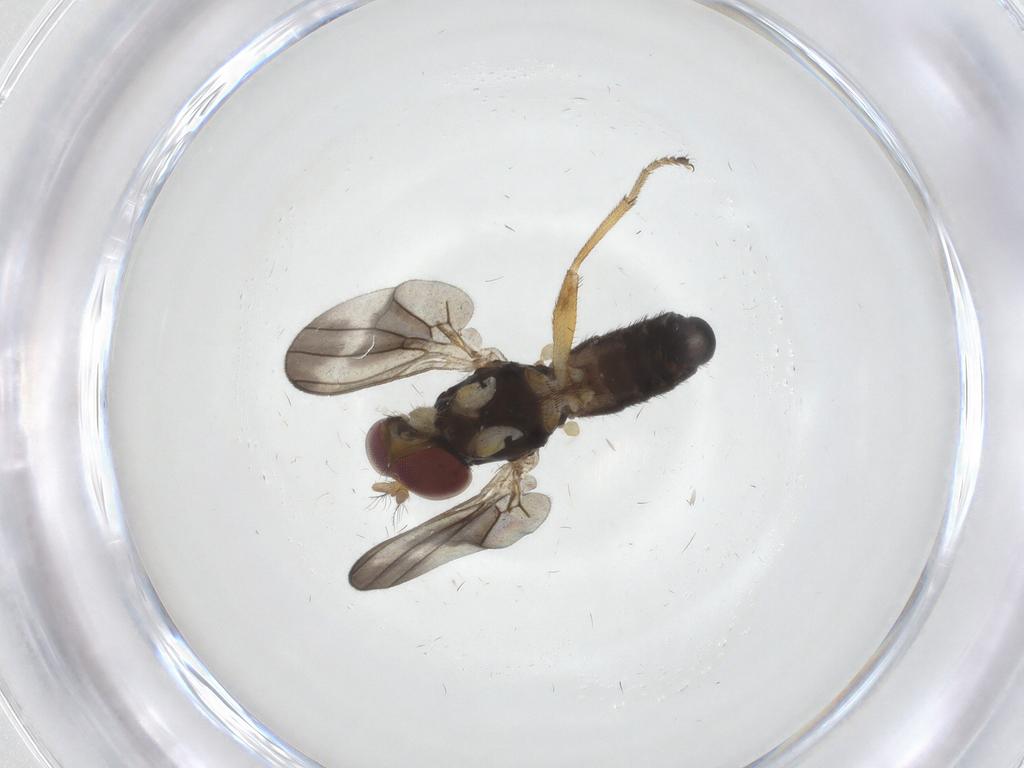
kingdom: Animalia
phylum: Arthropoda
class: Insecta
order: Diptera
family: Periscelididae
